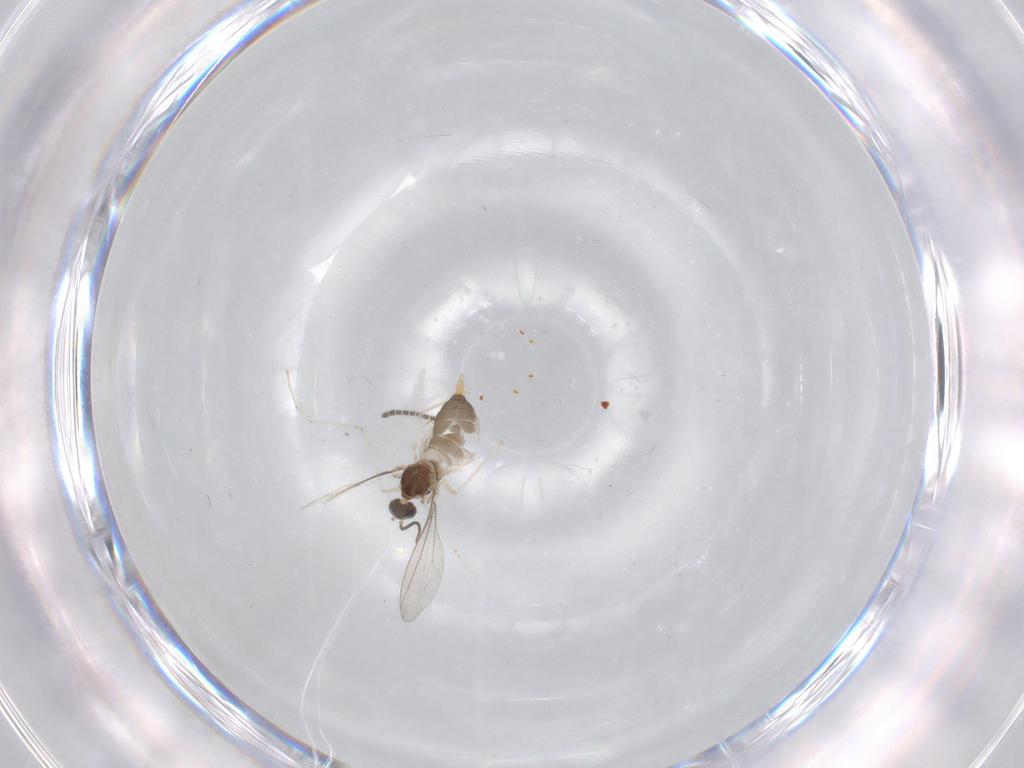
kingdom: Animalia
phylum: Arthropoda
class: Insecta
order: Diptera
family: Cecidomyiidae
